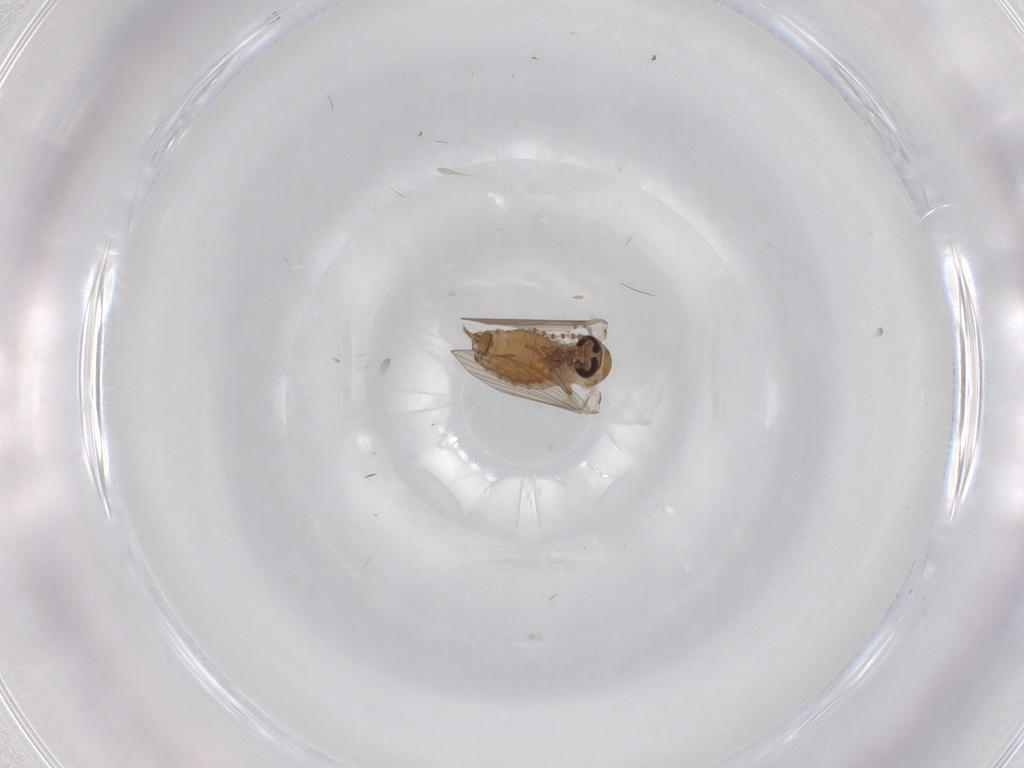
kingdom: Animalia
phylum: Arthropoda
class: Insecta
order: Diptera
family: Psychodidae
